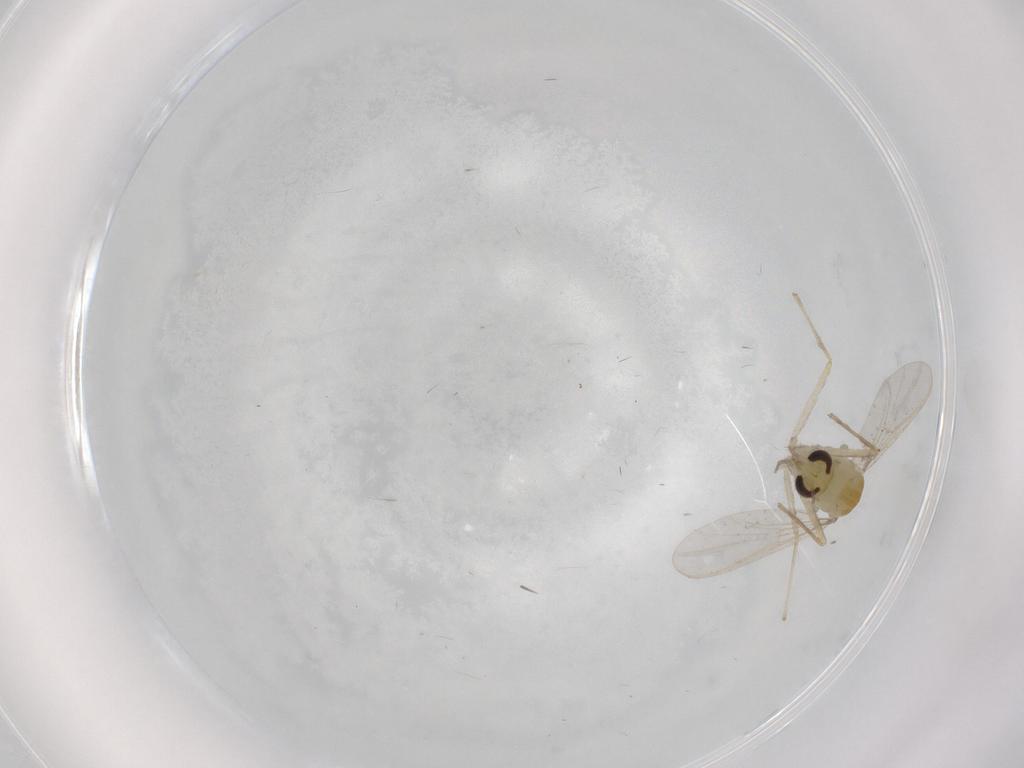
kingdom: Animalia
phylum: Arthropoda
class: Insecta
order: Diptera
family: Chironomidae
